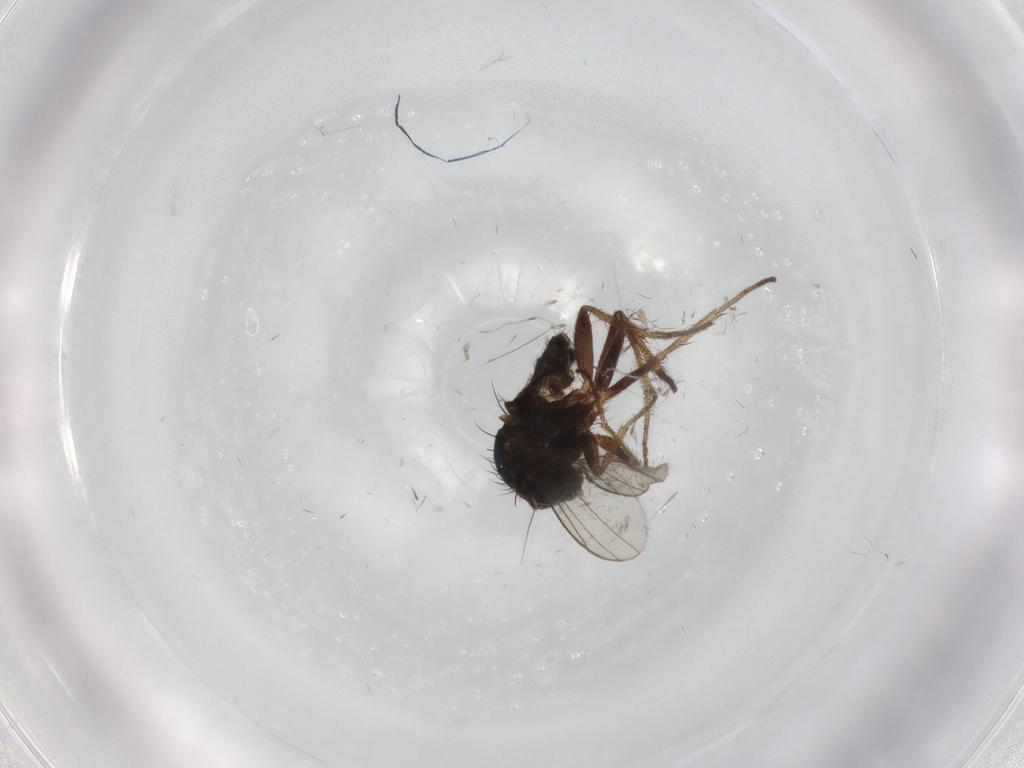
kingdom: Animalia
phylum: Arthropoda
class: Insecta
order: Diptera
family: Dolichopodidae
